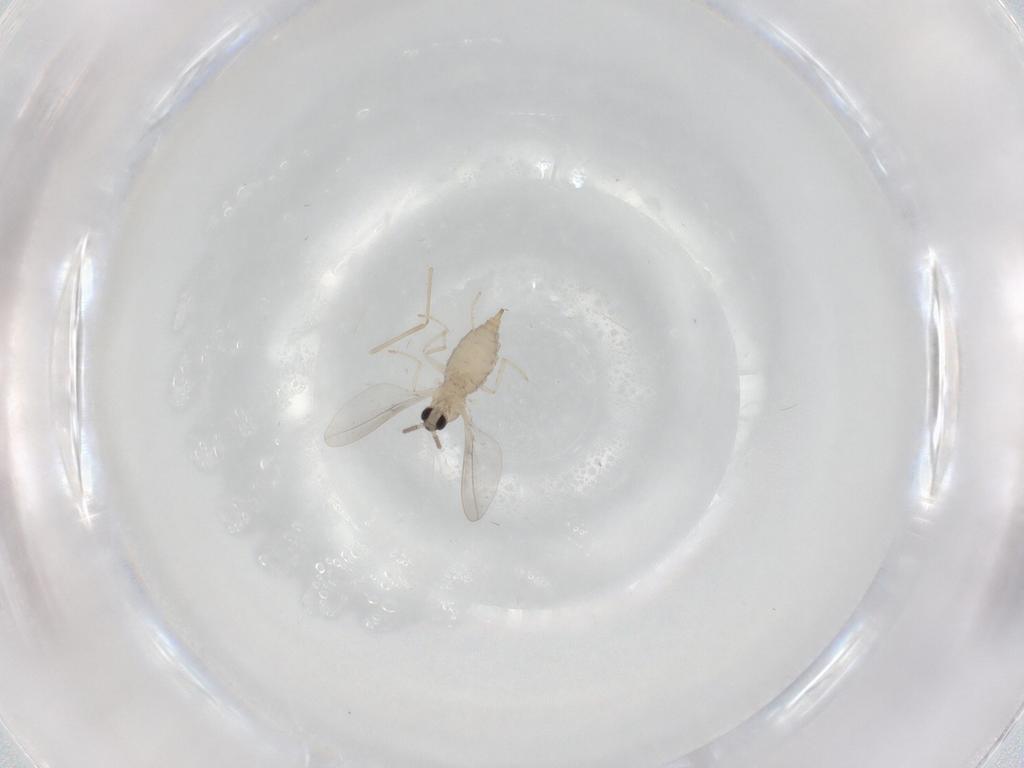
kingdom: Animalia
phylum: Arthropoda
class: Insecta
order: Diptera
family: Cecidomyiidae
